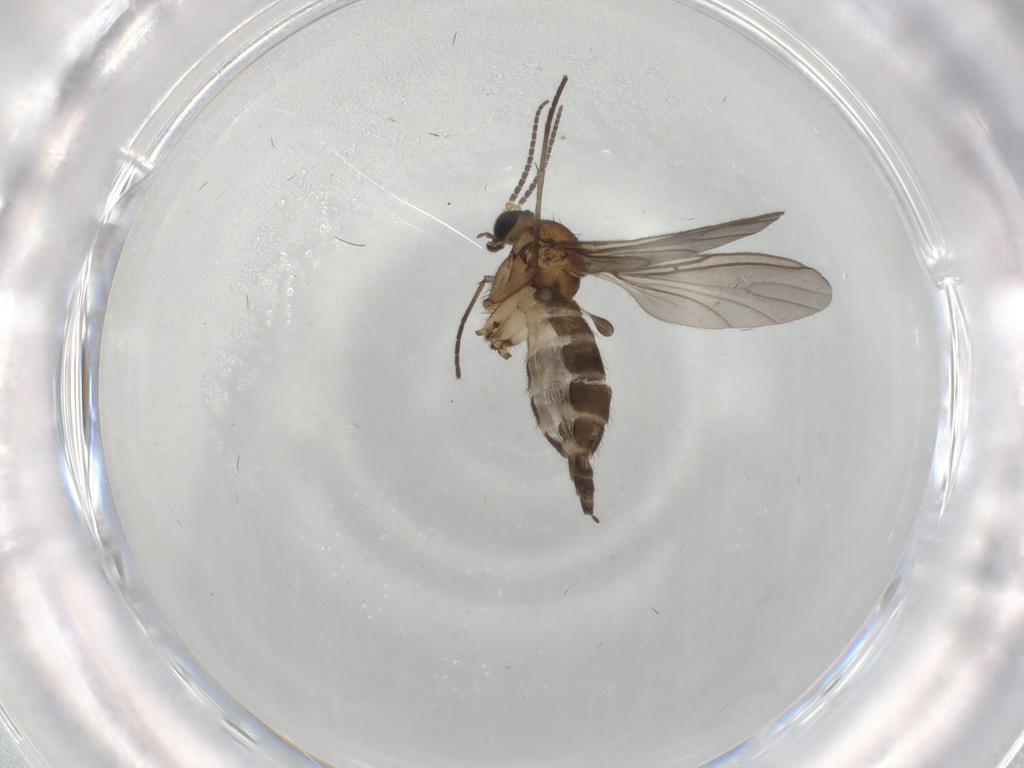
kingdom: Animalia
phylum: Arthropoda
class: Insecta
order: Diptera
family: Sciaridae
